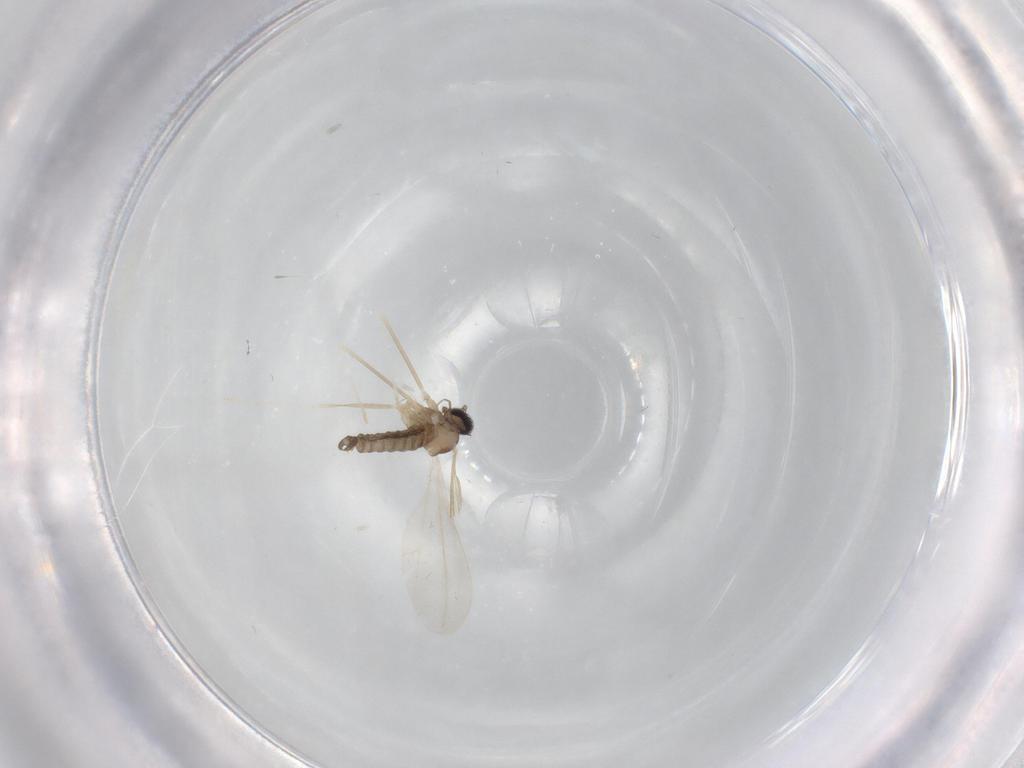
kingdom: Animalia
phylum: Arthropoda
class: Insecta
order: Diptera
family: Cecidomyiidae
